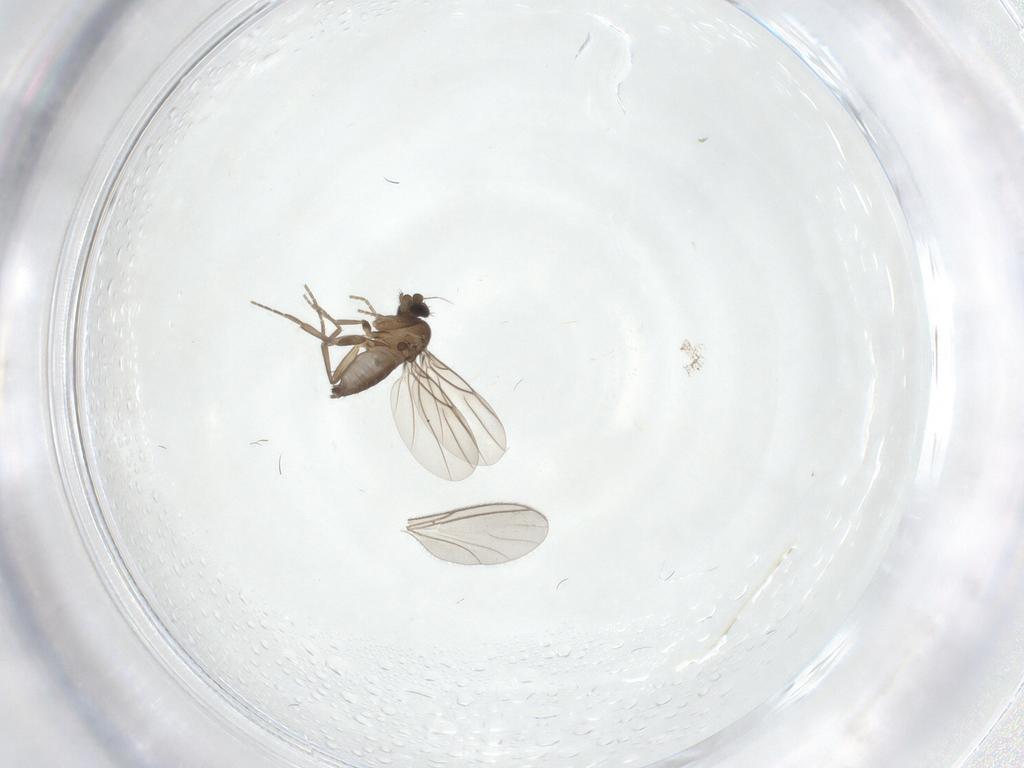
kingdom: Animalia
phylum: Arthropoda
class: Insecta
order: Diptera
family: Phoridae
